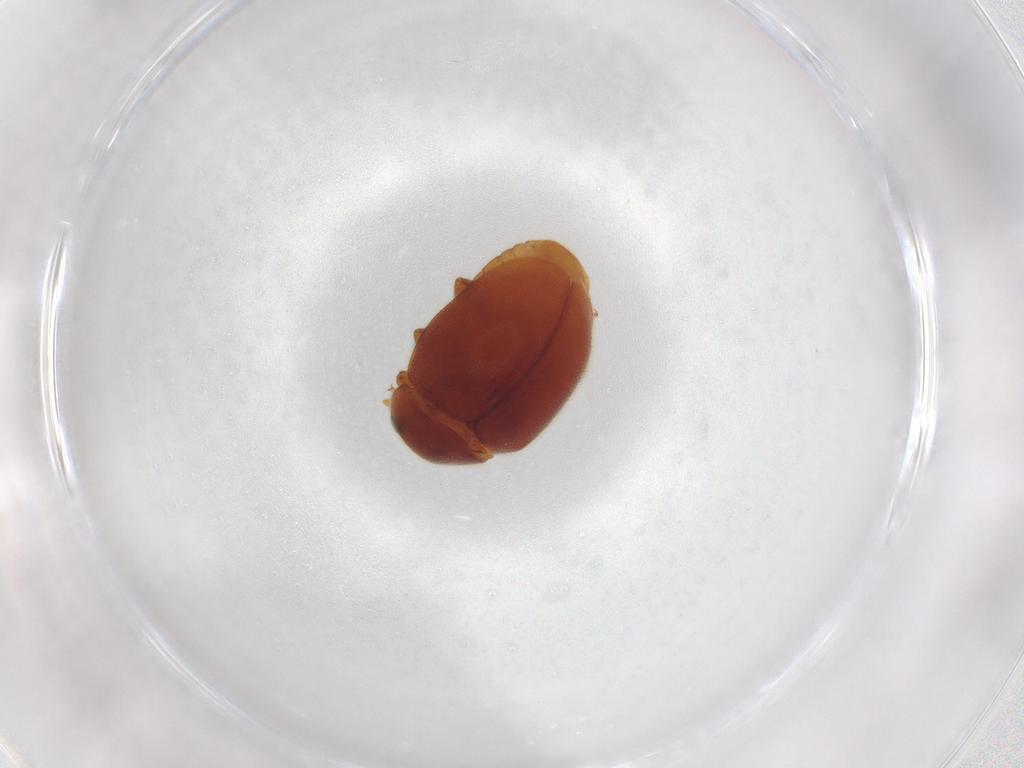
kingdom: Animalia
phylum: Arthropoda
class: Insecta
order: Coleoptera
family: Coccinellidae
